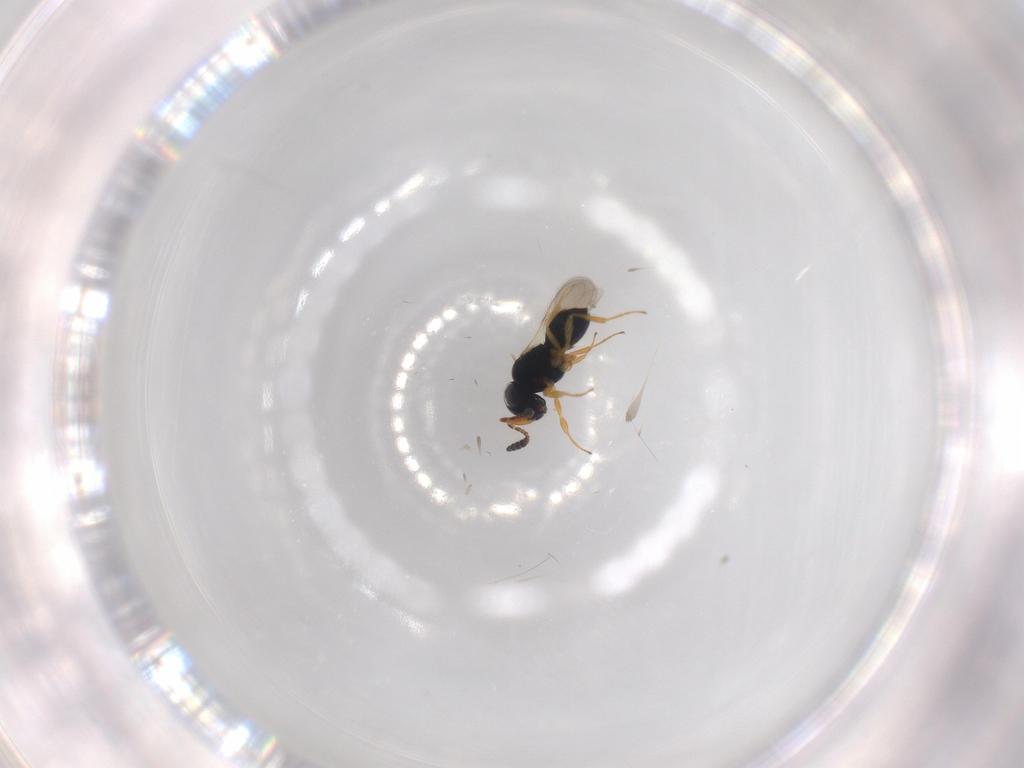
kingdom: Animalia
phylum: Arthropoda
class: Insecta
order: Hymenoptera
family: Scelionidae
